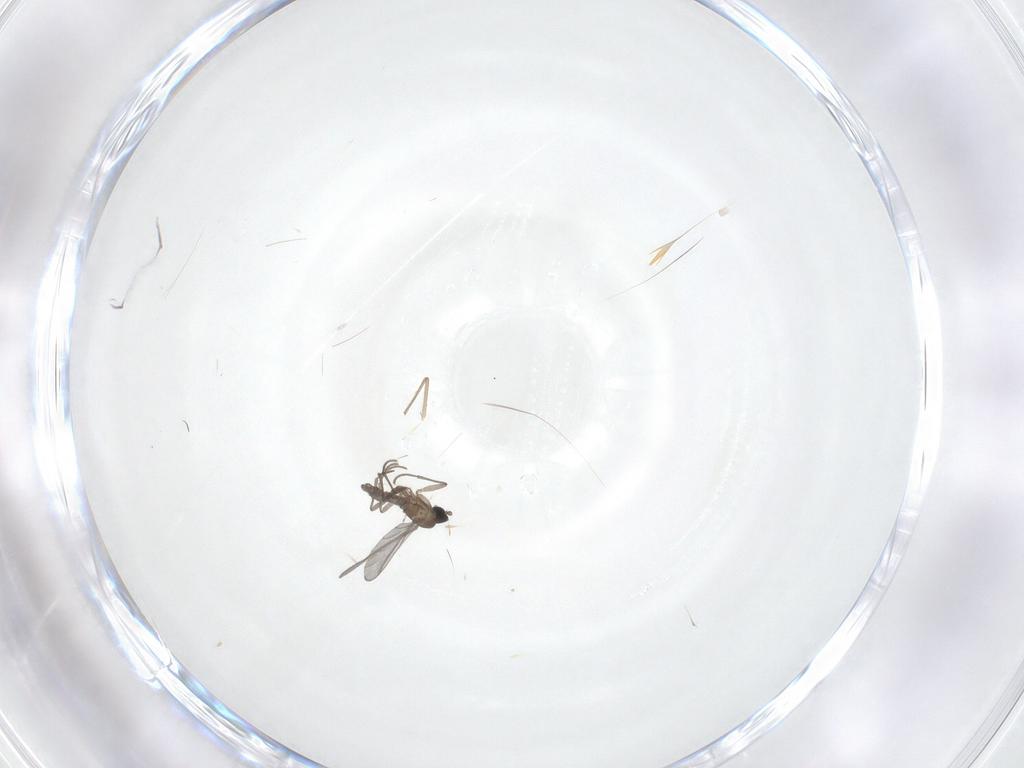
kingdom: Animalia
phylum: Arthropoda
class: Insecta
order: Diptera
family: Sciaridae
